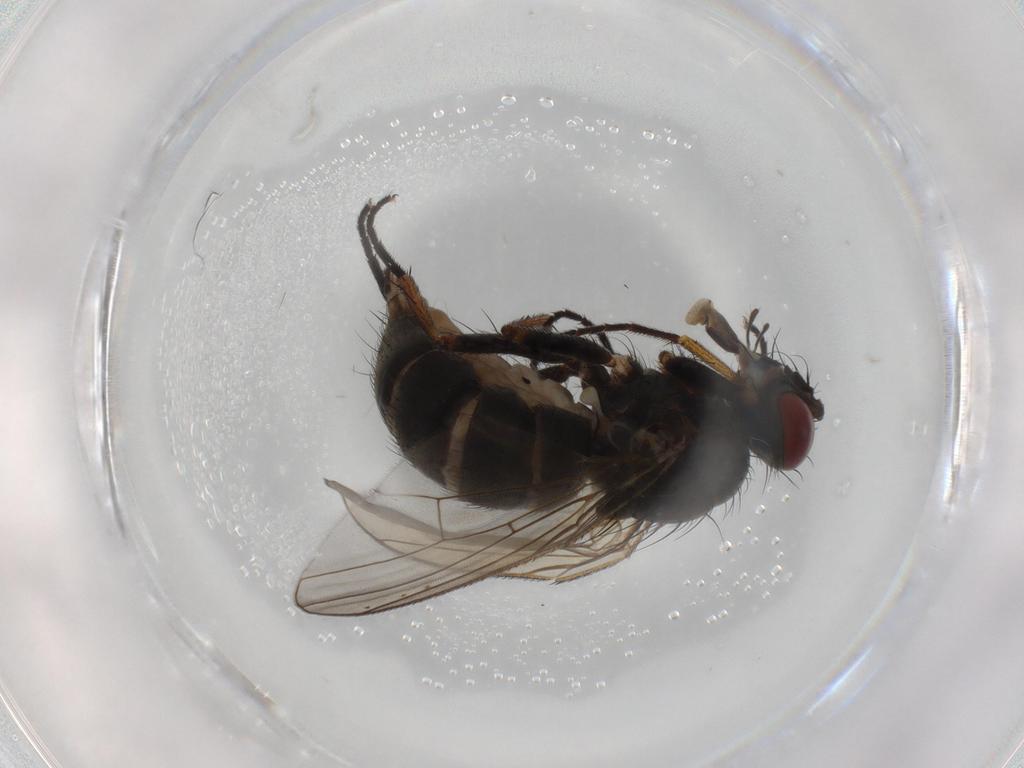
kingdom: Animalia
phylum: Arthropoda
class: Insecta
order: Diptera
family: Muscidae
